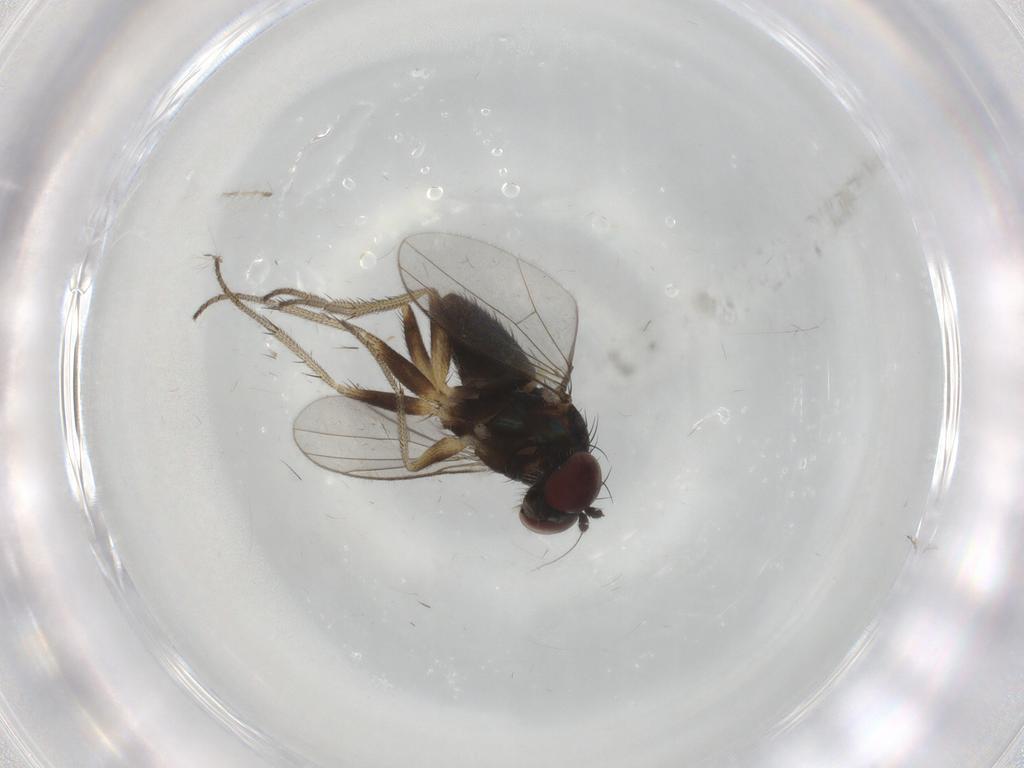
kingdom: Animalia
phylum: Arthropoda
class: Insecta
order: Diptera
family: Dolichopodidae
